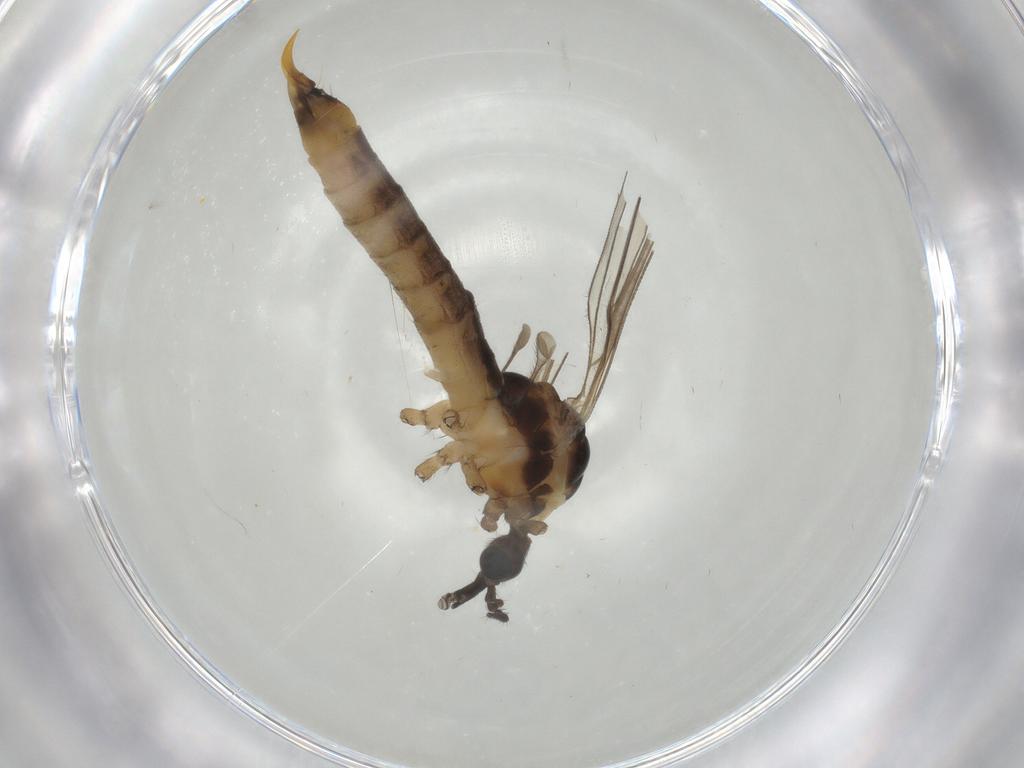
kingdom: Animalia
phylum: Arthropoda
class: Insecta
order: Diptera
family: Limoniidae
